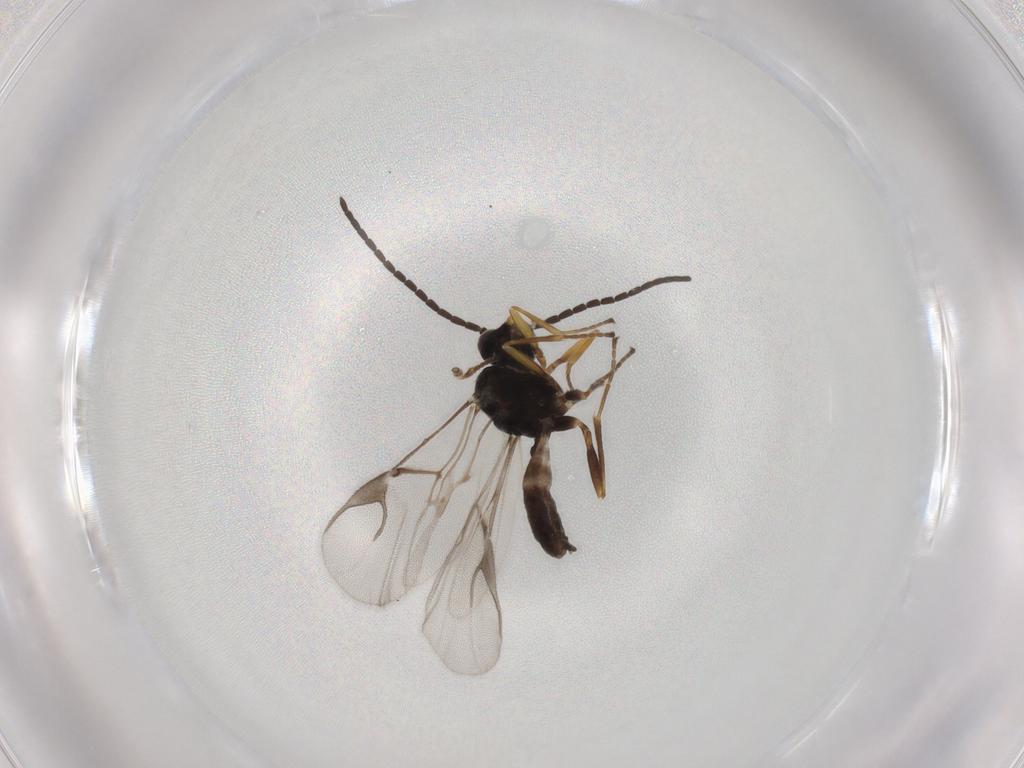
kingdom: Animalia
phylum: Arthropoda
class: Insecta
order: Hymenoptera
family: Braconidae
